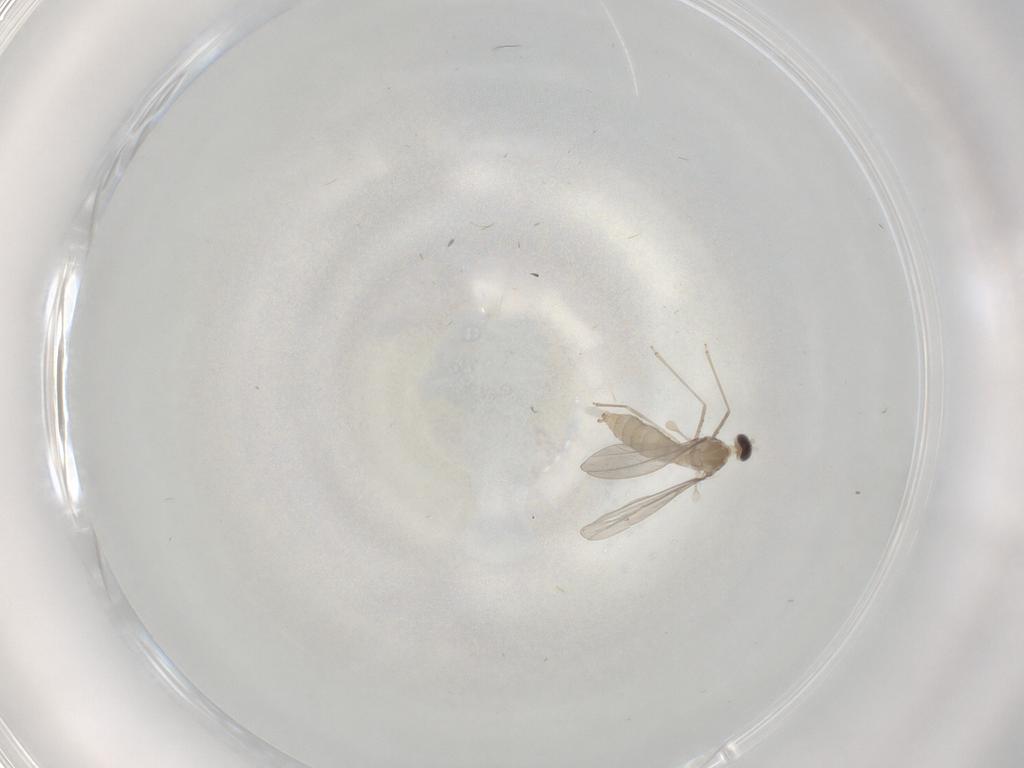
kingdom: Animalia
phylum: Arthropoda
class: Insecta
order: Diptera
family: Cecidomyiidae
